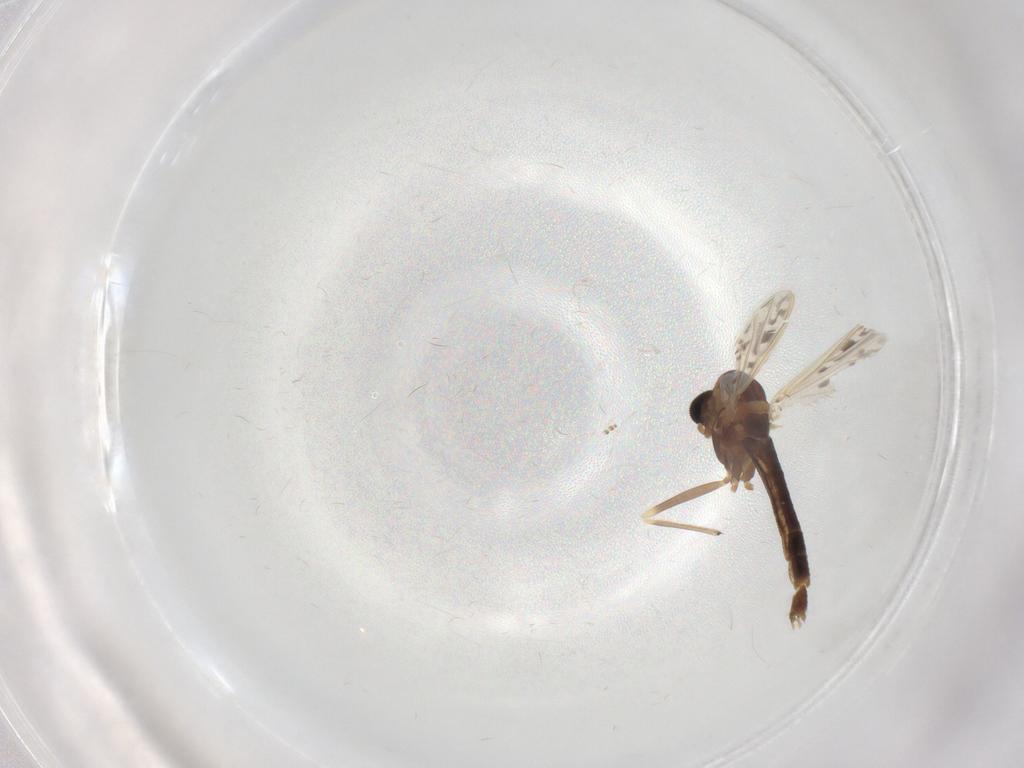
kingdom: Animalia
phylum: Arthropoda
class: Insecta
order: Diptera
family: Chironomidae
